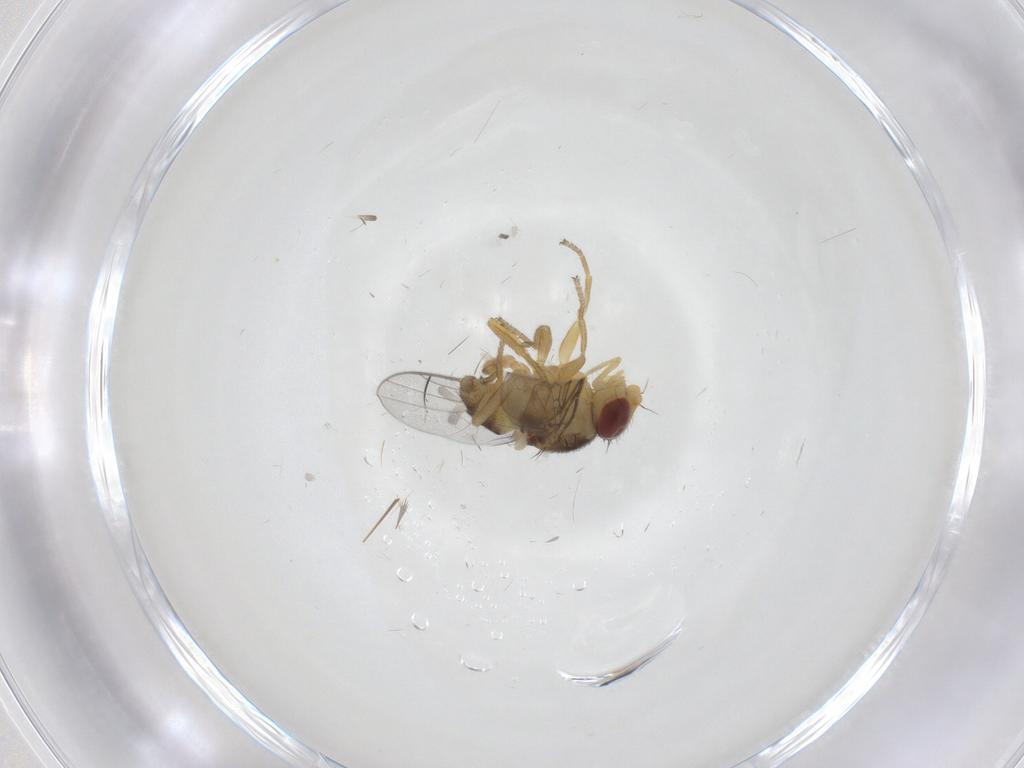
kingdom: Animalia
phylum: Arthropoda
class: Insecta
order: Diptera
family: Chloropidae
